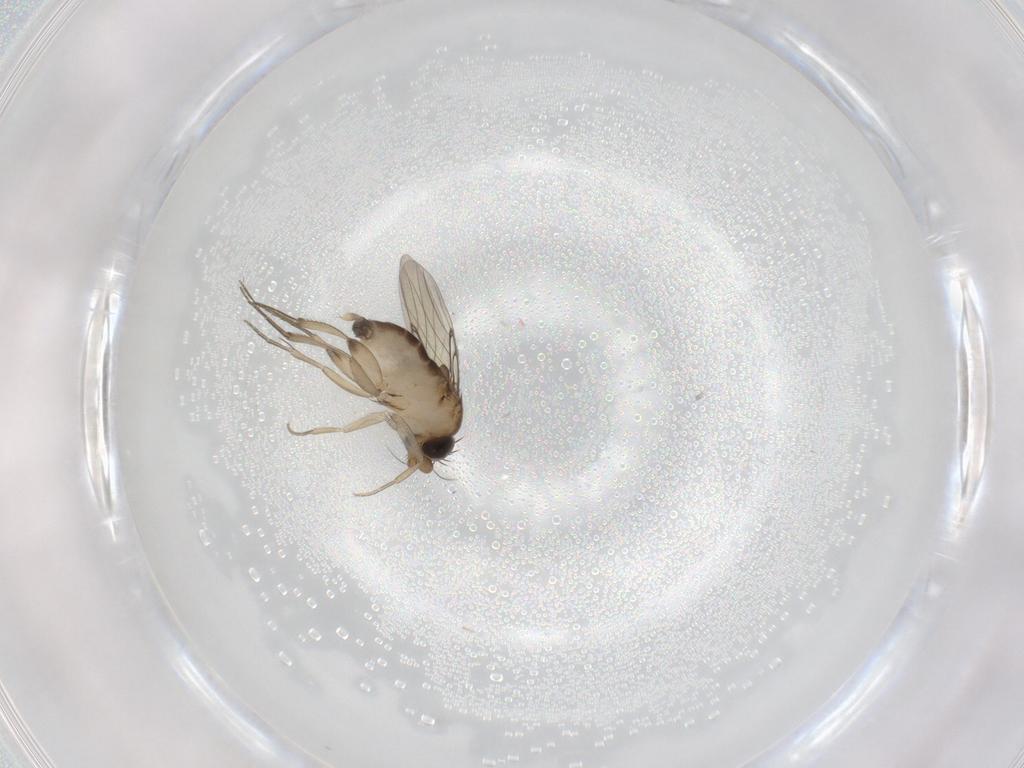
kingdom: Animalia
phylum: Arthropoda
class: Insecta
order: Diptera
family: Phoridae
